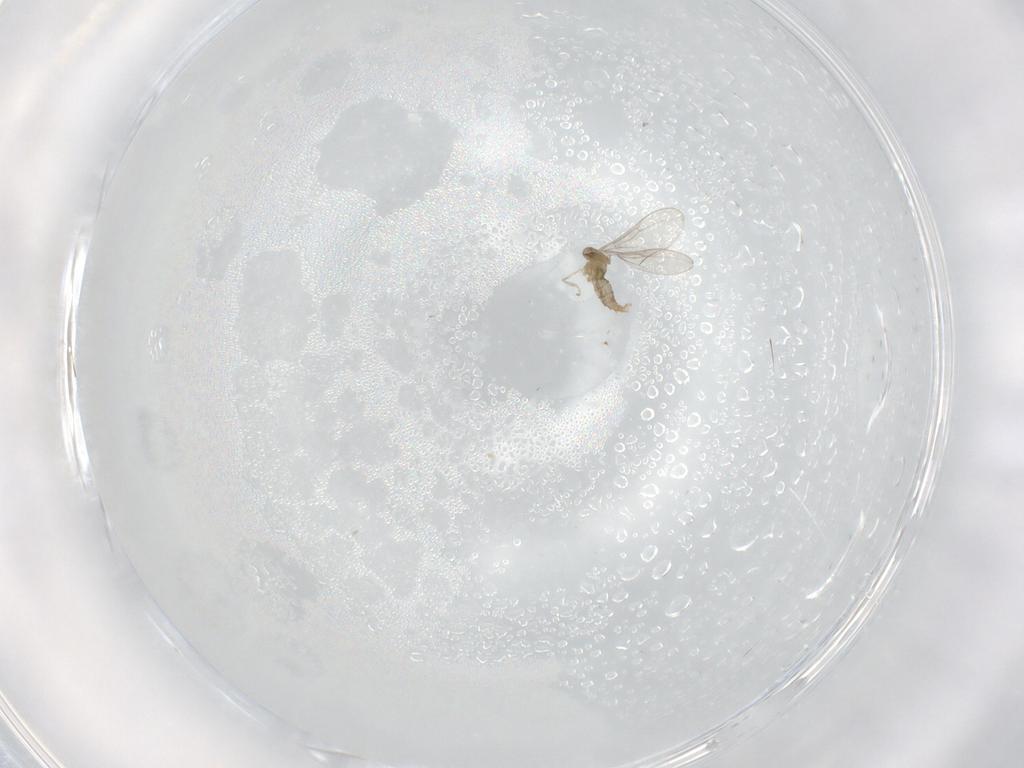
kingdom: Animalia
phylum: Arthropoda
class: Insecta
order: Diptera
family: Cecidomyiidae
